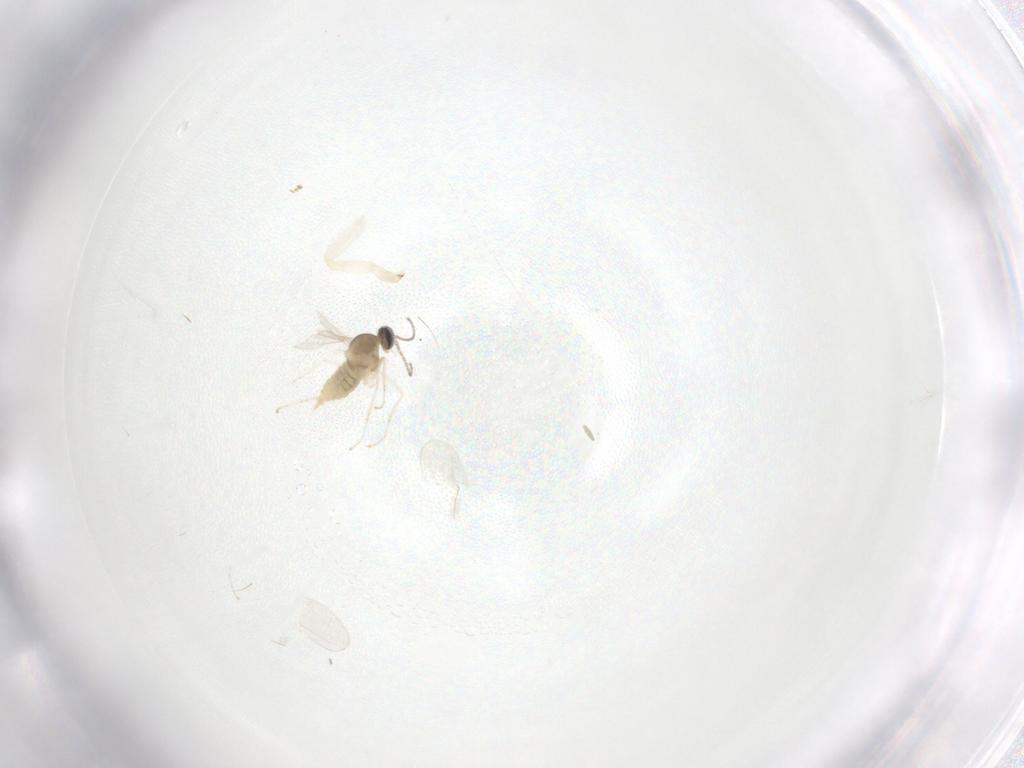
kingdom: Animalia
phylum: Arthropoda
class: Insecta
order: Diptera
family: Cecidomyiidae
